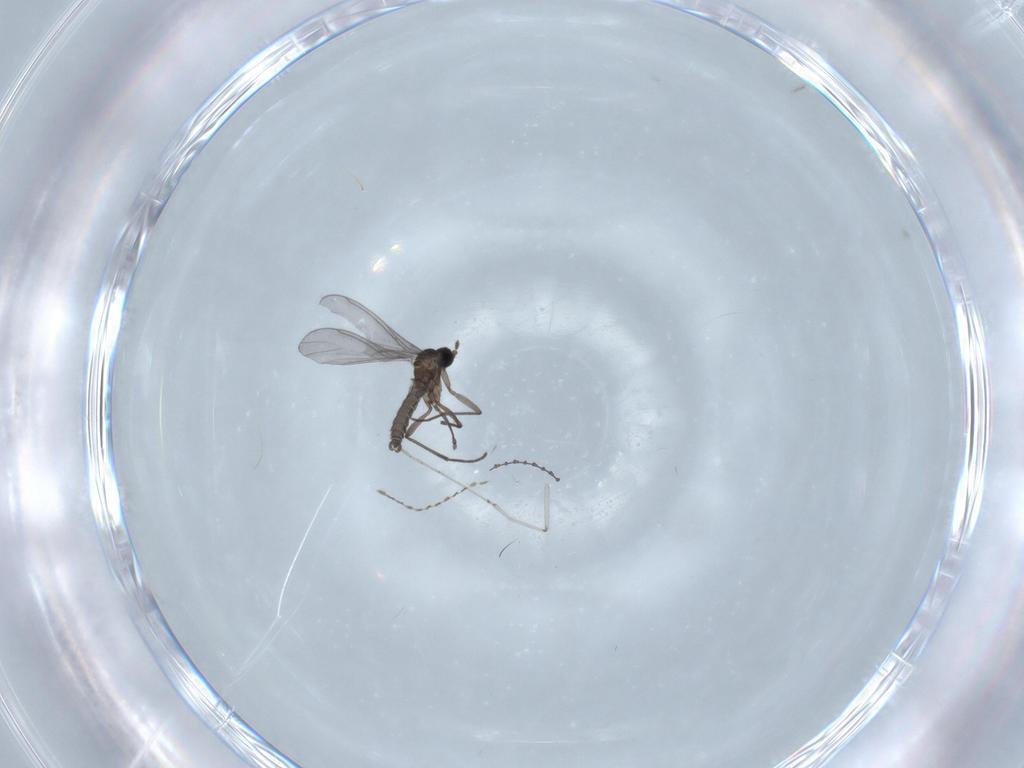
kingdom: Animalia
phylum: Arthropoda
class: Insecta
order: Diptera
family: Sciaridae
